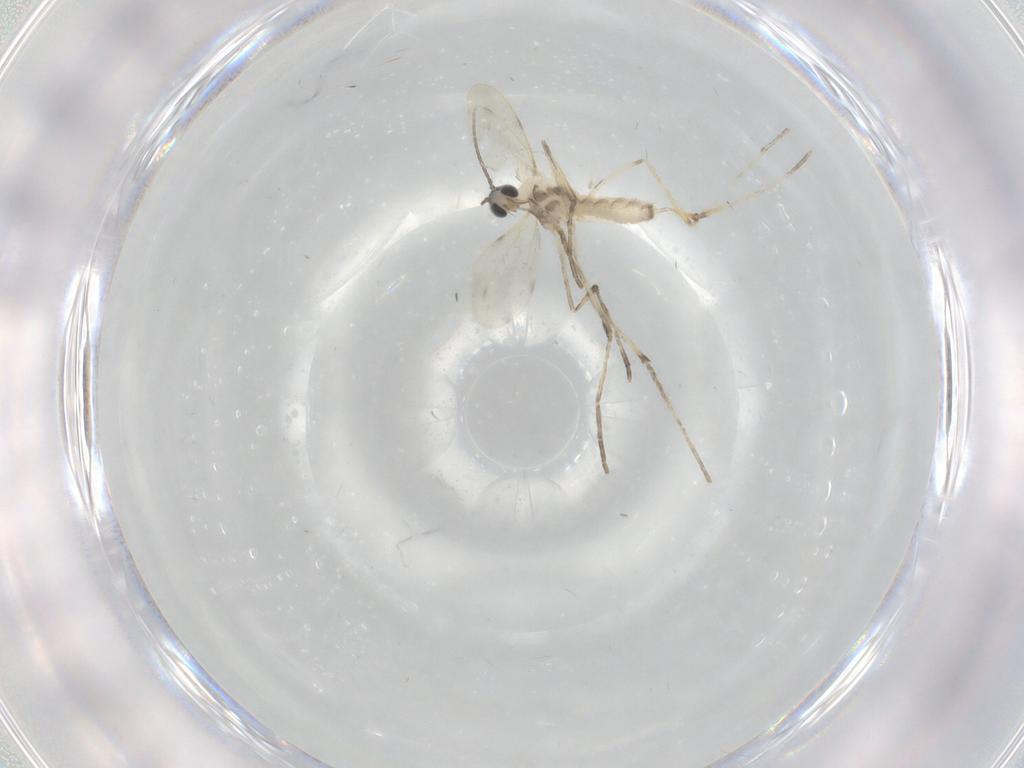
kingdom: Animalia
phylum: Arthropoda
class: Insecta
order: Diptera
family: Cecidomyiidae
